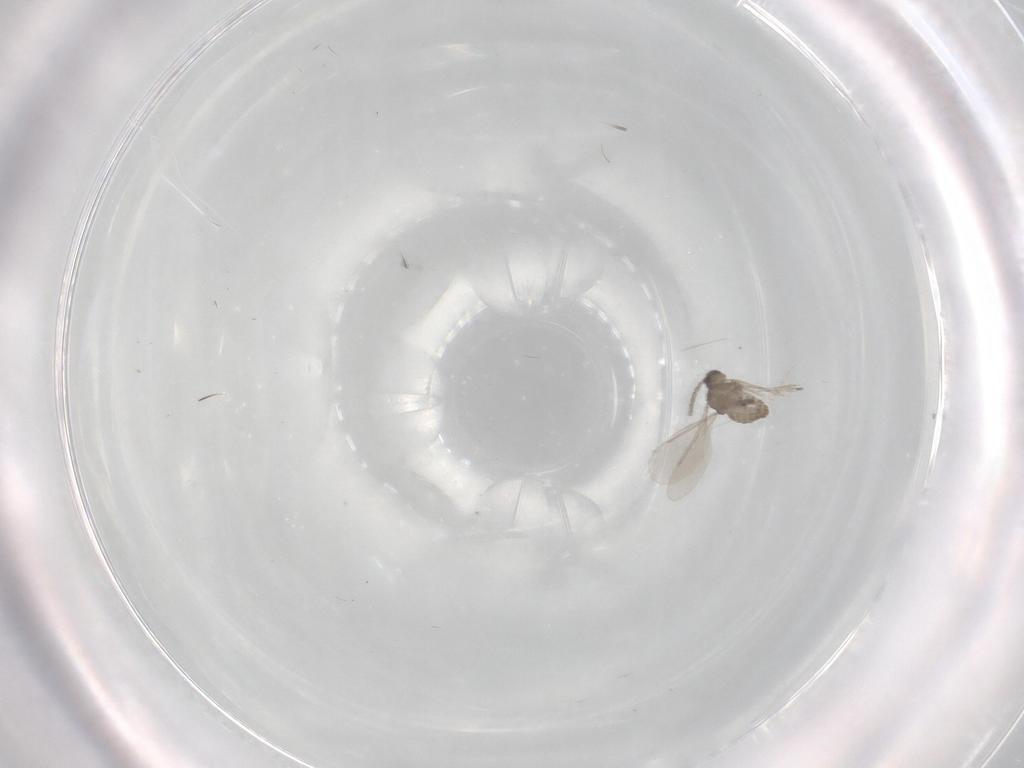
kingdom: Animalia
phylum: Arthropoda
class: Insecta
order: Diptera
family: Cecidomyiidae
